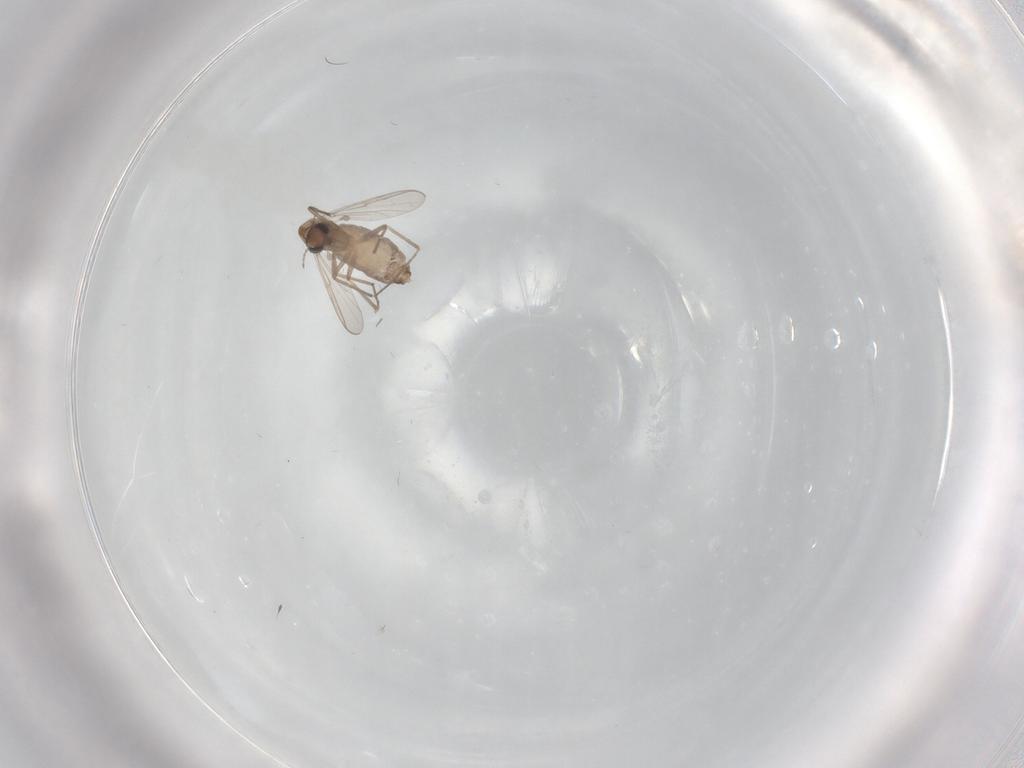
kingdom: Animalia
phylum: Arthropoda
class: Insecta
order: Diptera
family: Chironomidae
